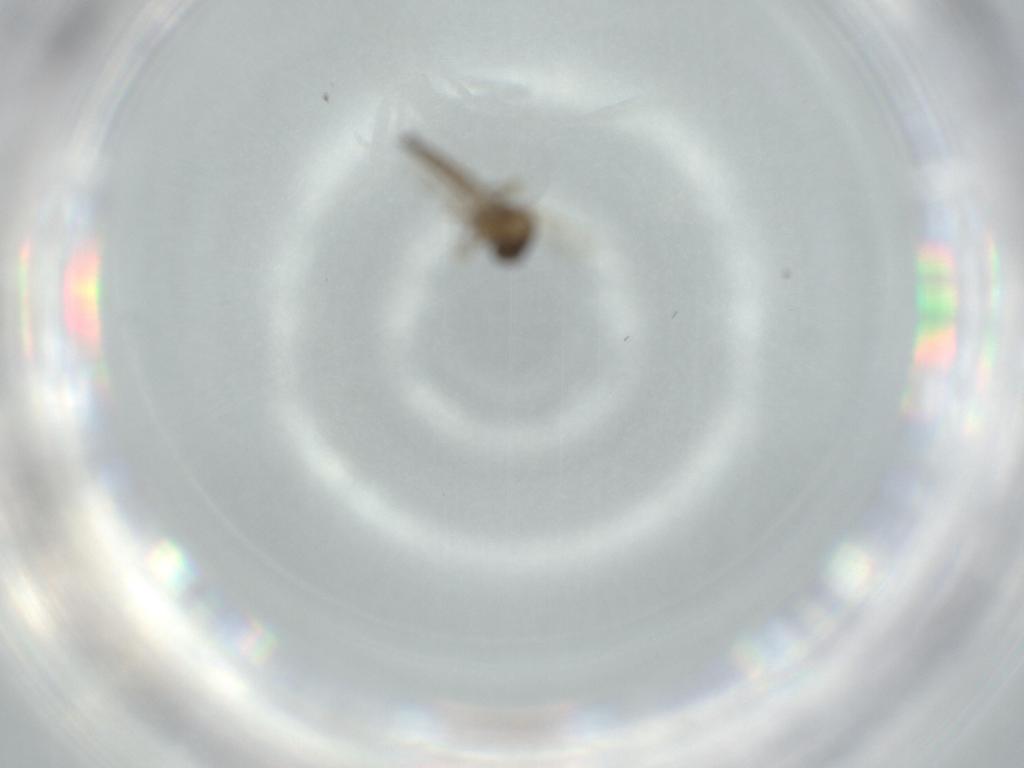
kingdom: Animalia
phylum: Arthropoda
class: Insecta
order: Diptera
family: Ceratopogonidae
